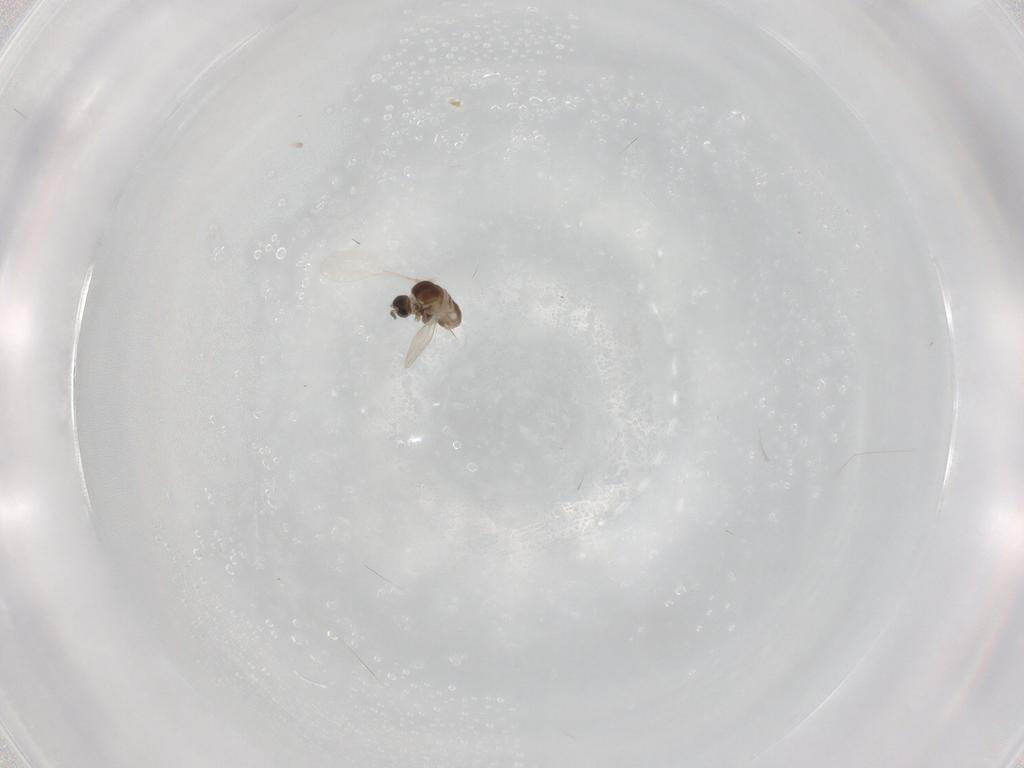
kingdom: Animalia
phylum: Arthropoda
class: Insecta
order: Diptera
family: Cecidomyiidae
